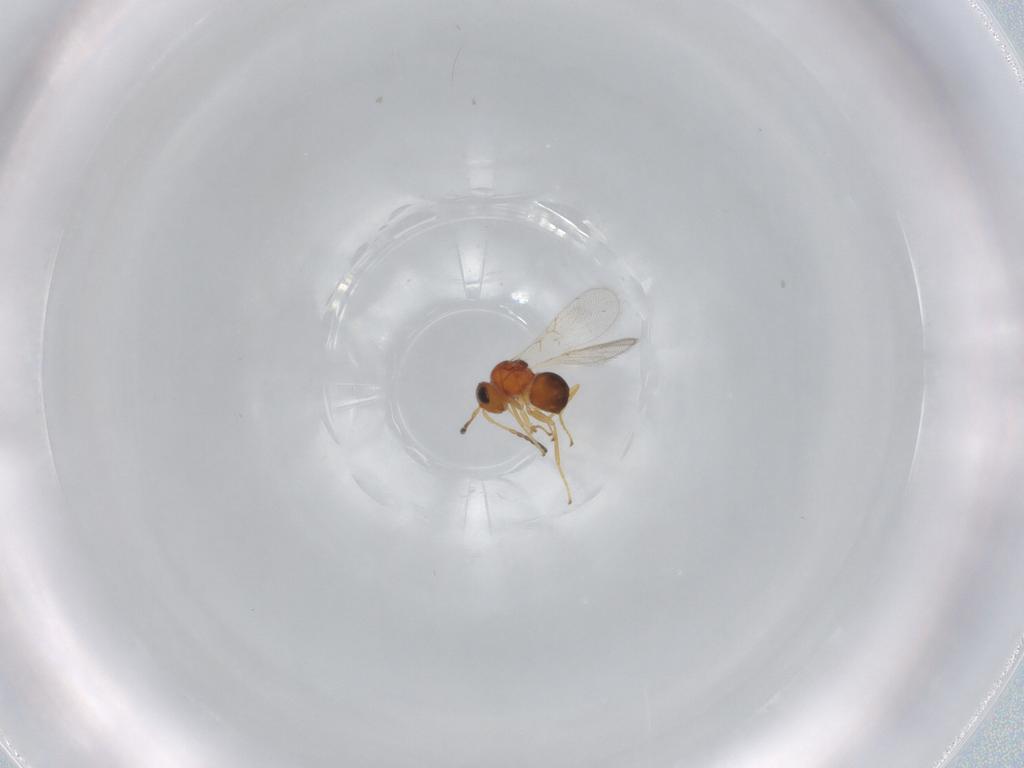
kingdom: Animalia
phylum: Arthropoda
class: Insecta
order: Hymenoptera
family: Figitidae
